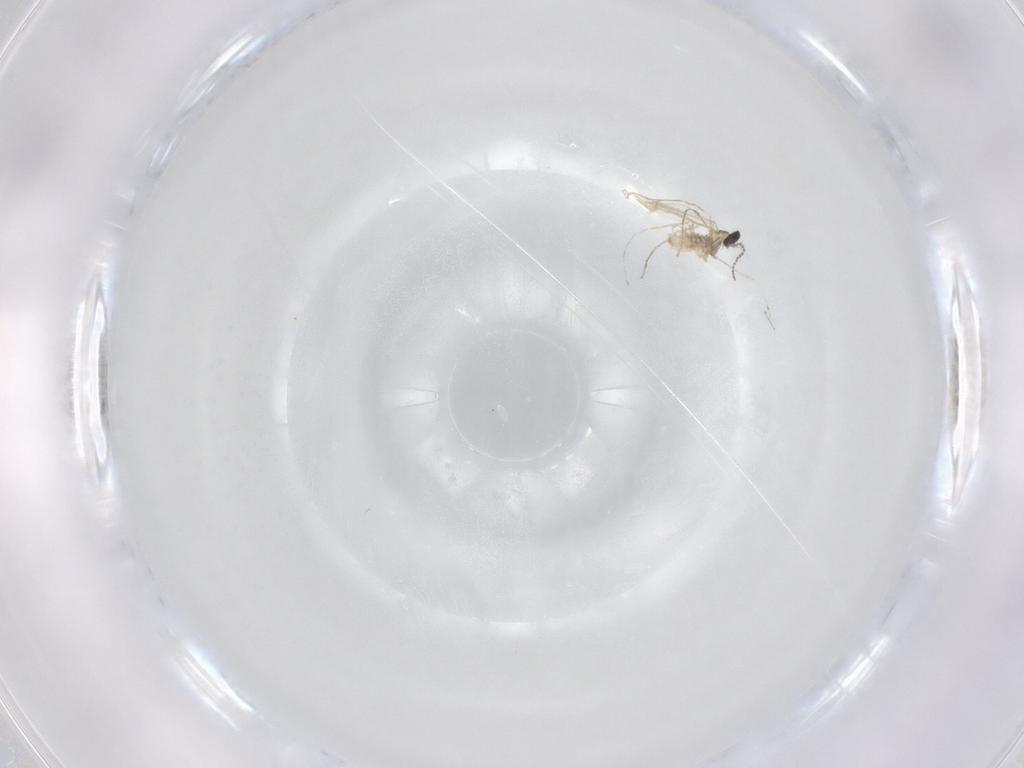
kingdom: Animalia
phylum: Arthropoda
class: Insecta
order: Diptera
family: Cecidomyiidae
